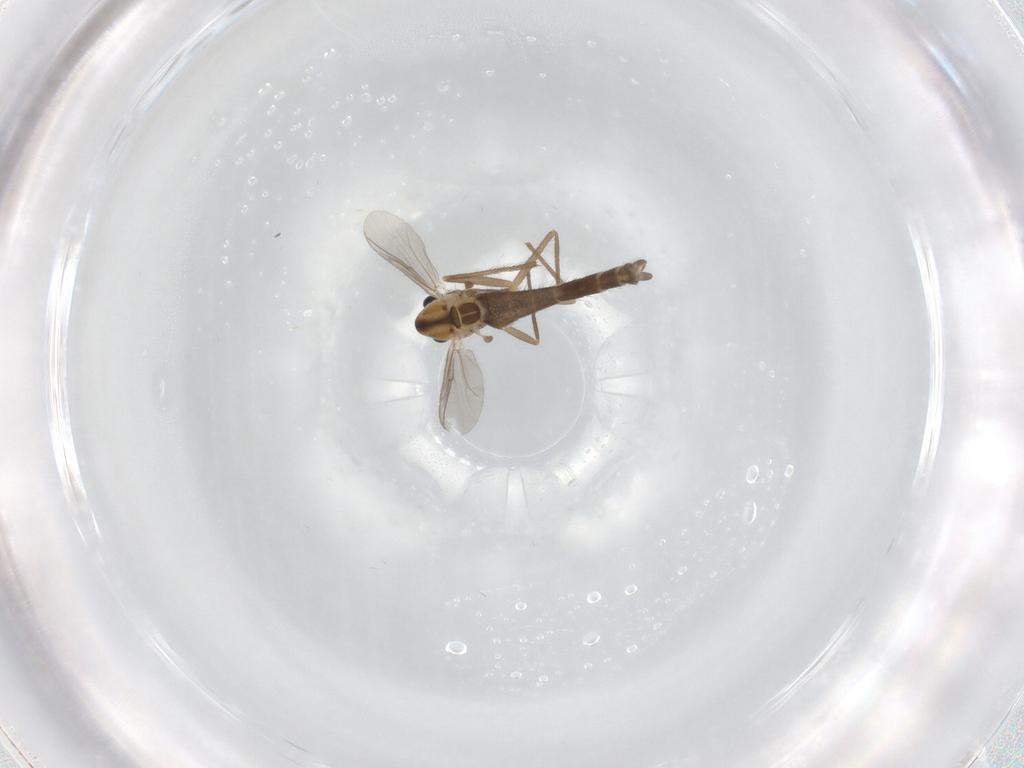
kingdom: Animalia
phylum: Arthropoda
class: Insecta
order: Diptera
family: Chironomidae
